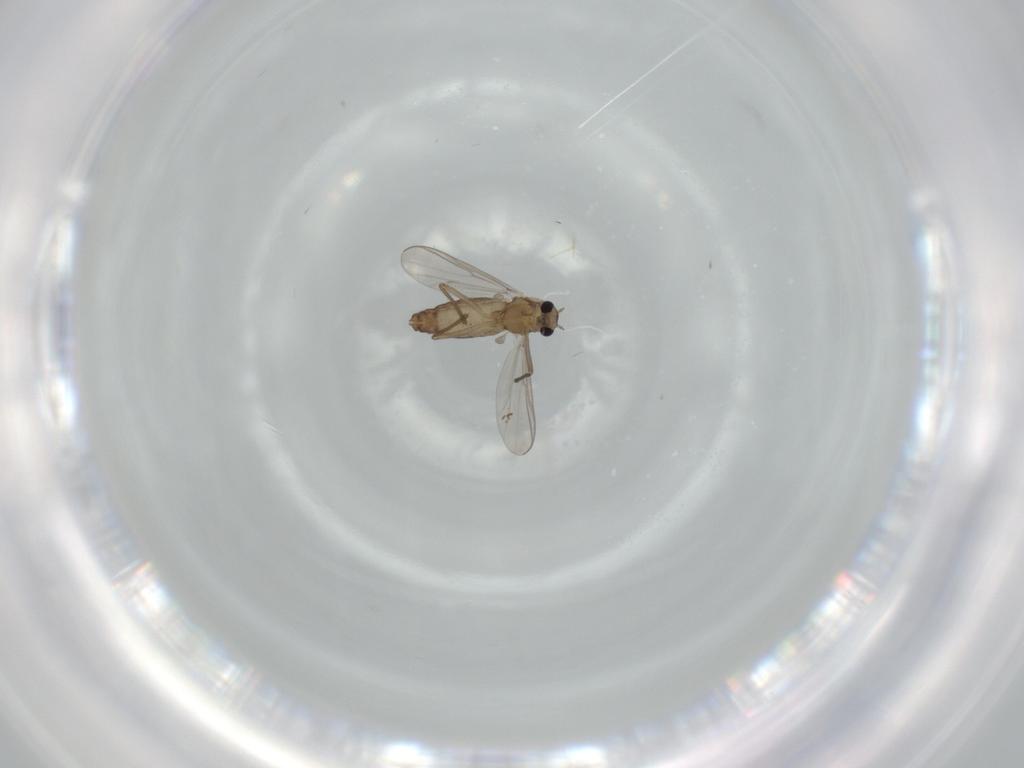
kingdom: Animalia
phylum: Arthropoda
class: Insecta
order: Diptera
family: Chironomidae
